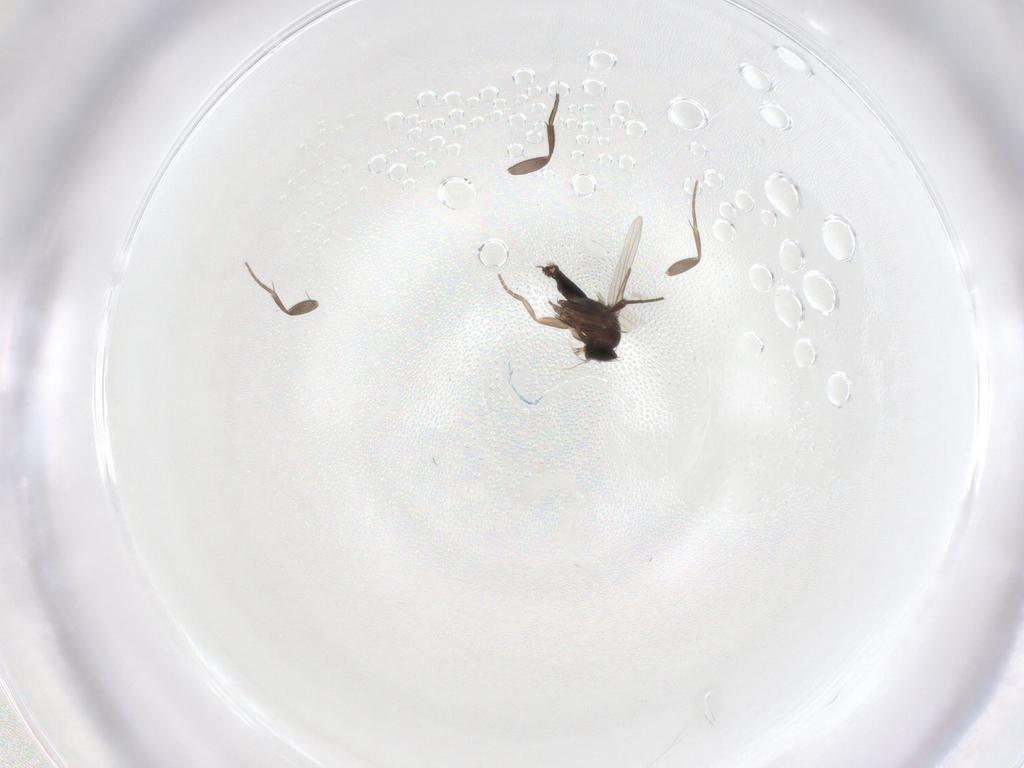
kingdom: Animalia
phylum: Arthropoda
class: Insecta
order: Diptera
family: Phoridae
